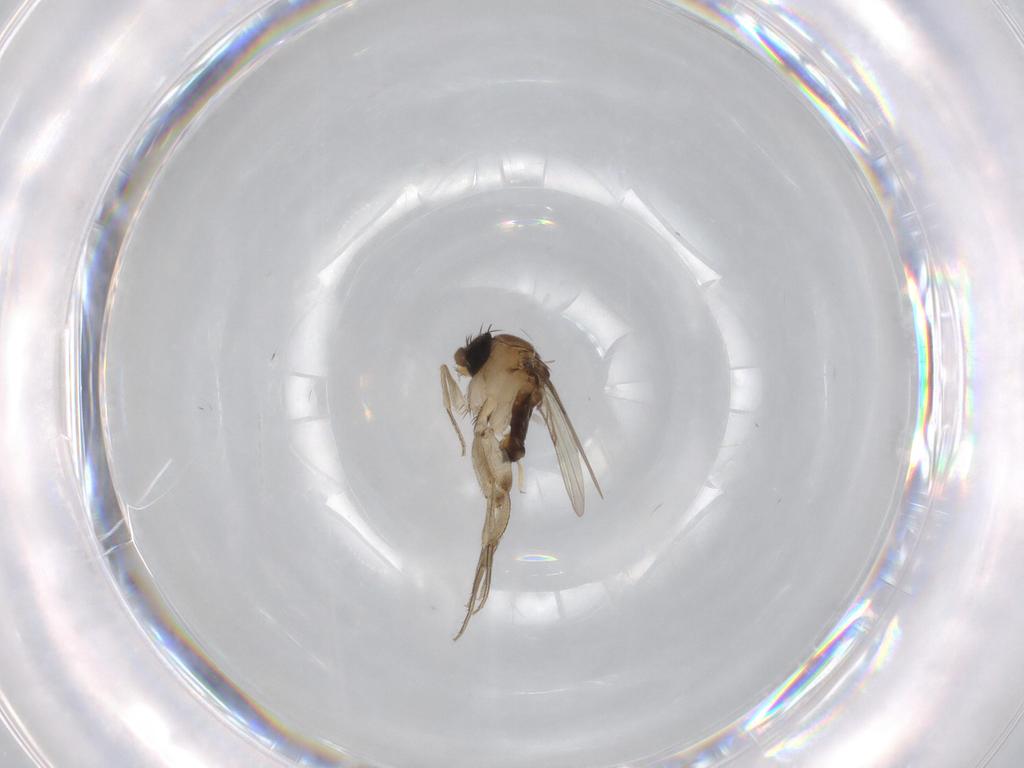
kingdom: Animalia
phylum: Arthropoda
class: Insecta
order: Diptera
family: Phoridae
